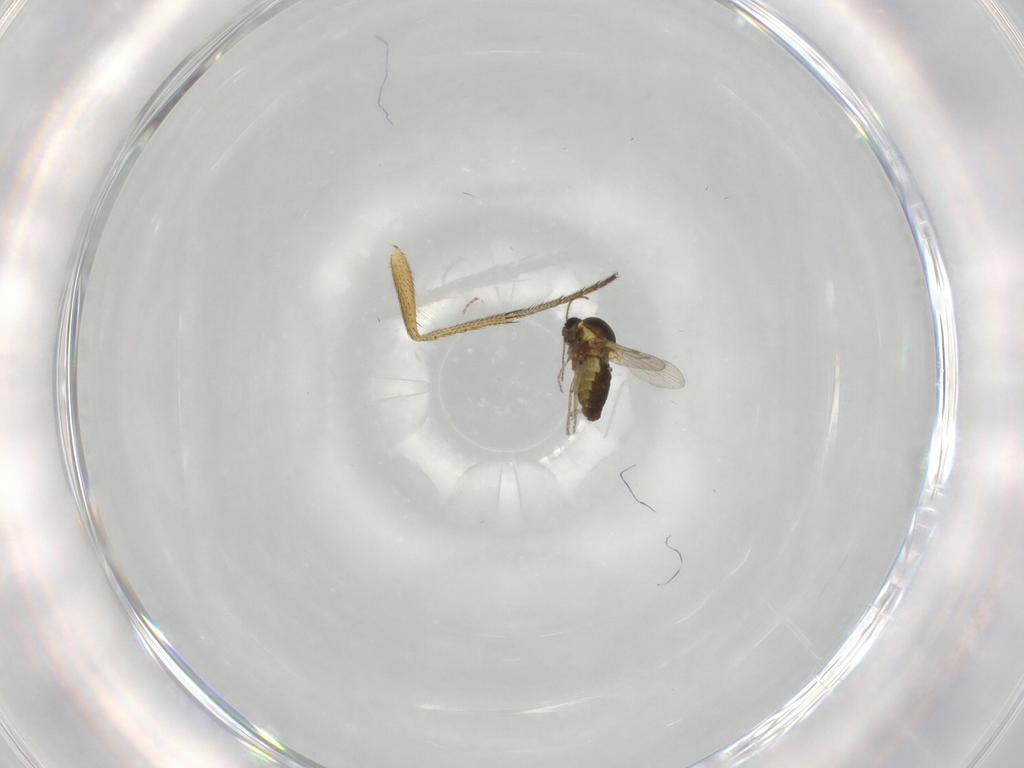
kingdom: Animalia
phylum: Arthropoda
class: Insecta
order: Diptera
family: Ceratopogonidae
